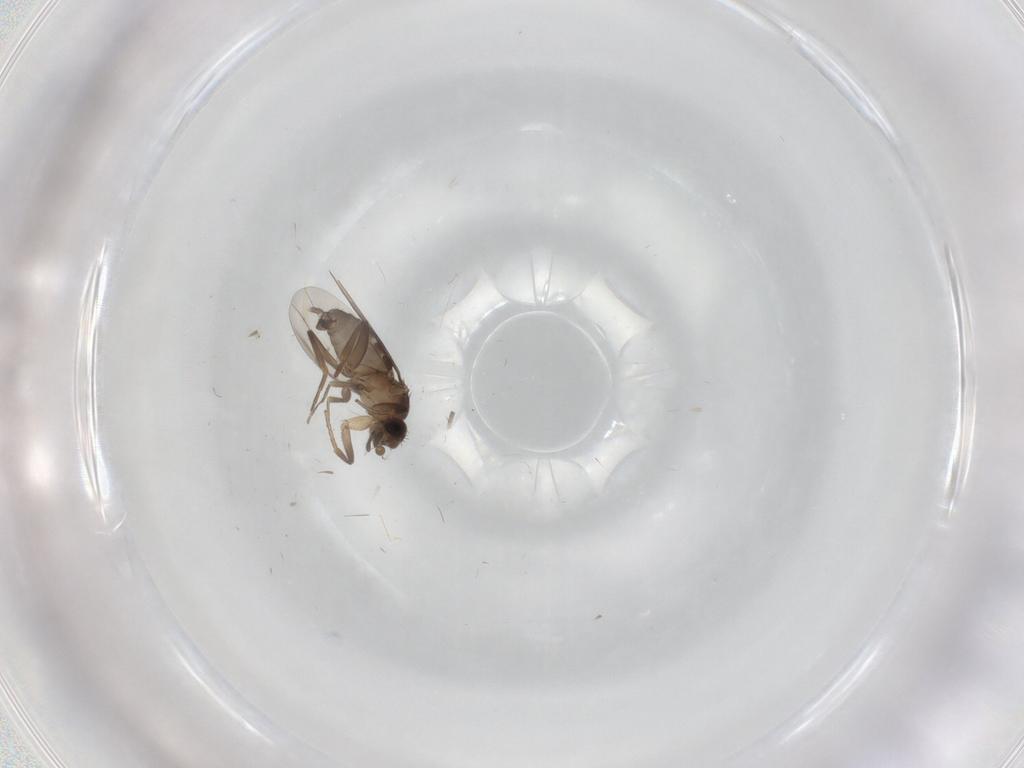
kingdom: Animalia
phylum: Arthropoda
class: Insecta
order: Diptera
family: Phoridae
